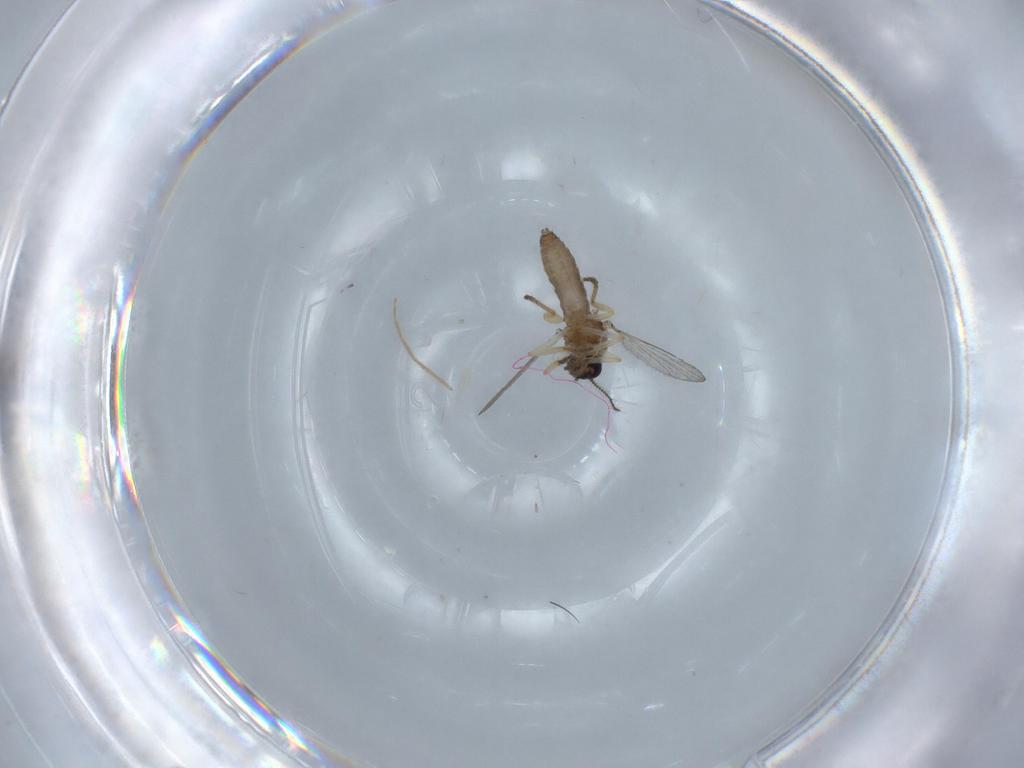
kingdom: Animalia
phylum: Arthropoda
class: Insecta
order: Diptera
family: Ceratopogonidae
